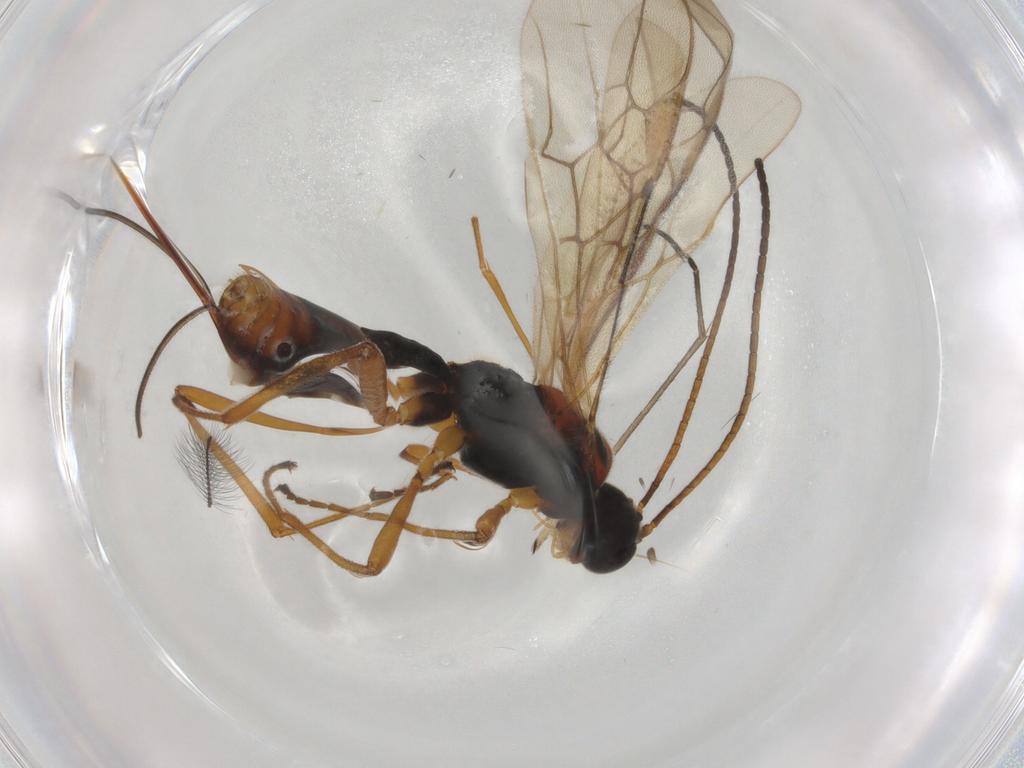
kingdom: Animalia
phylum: Arthropoda
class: Insecta
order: Hymenoptera
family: Braconidae
